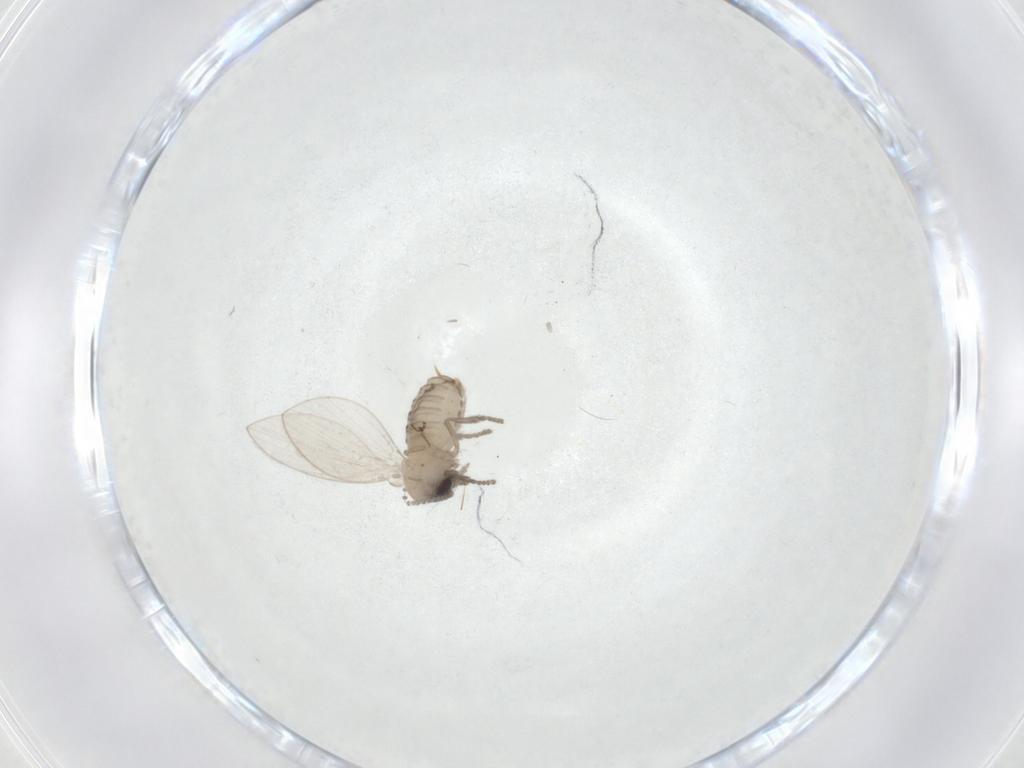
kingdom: Animalia
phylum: Arthropoda
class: Insecta
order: Diptera
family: Psychodidae
